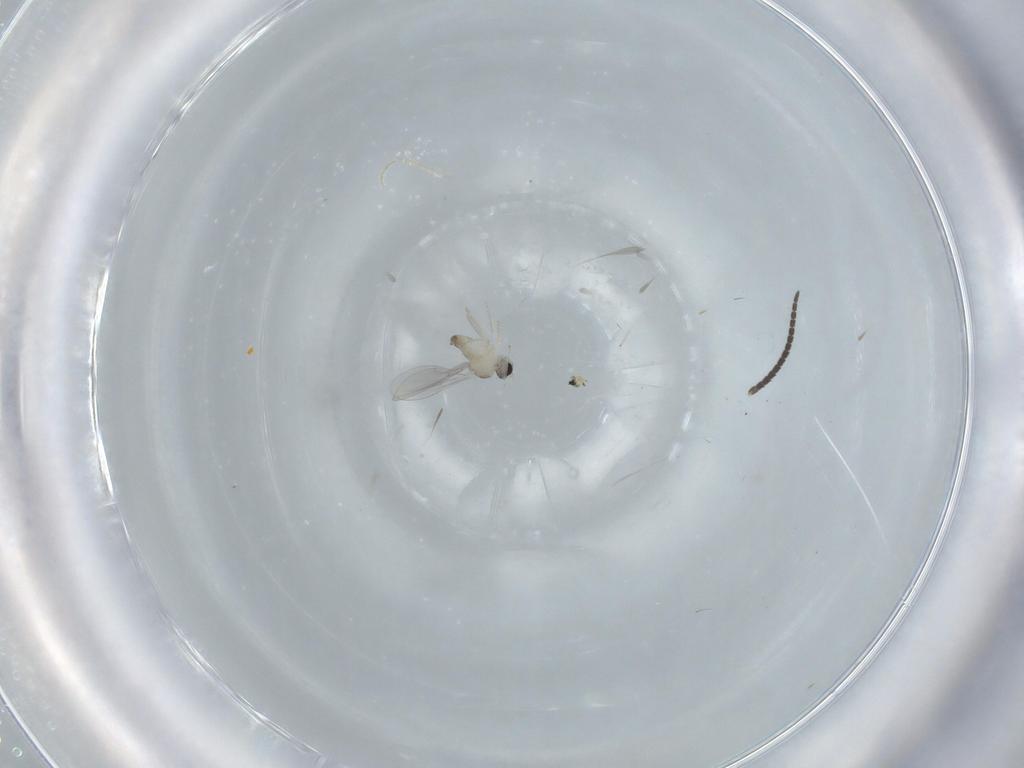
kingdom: Animalia
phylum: Arthropoda
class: Insecta
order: Diptera
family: Cecidomyiidae
